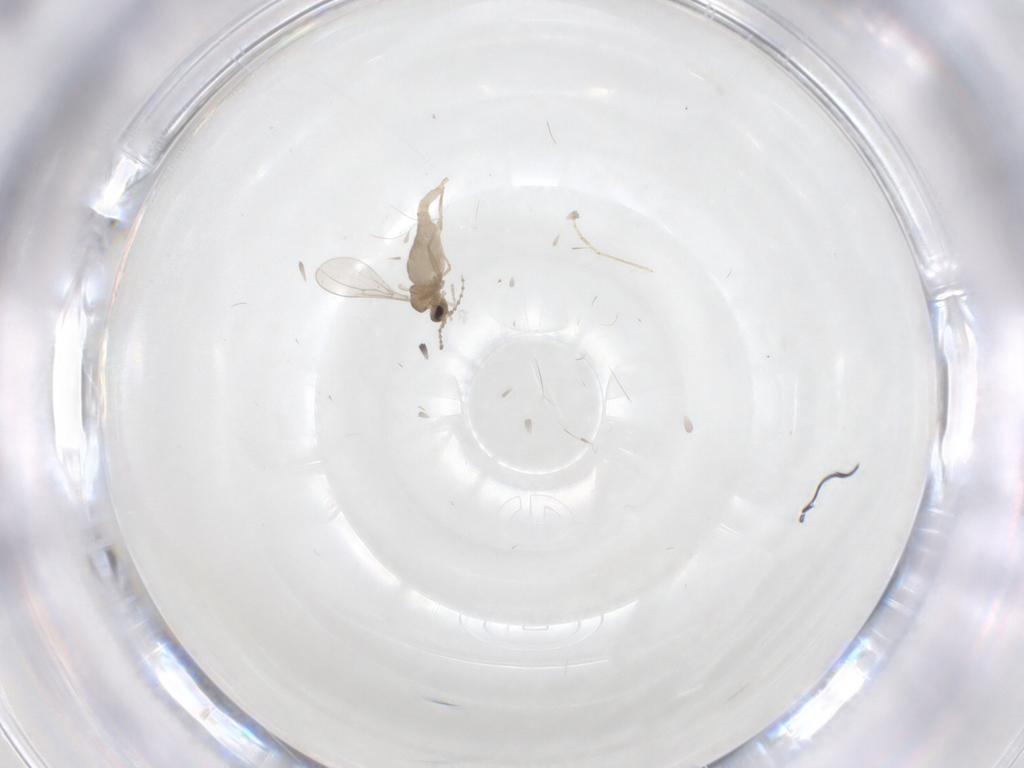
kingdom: Animalia
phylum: Arthropoda
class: Insecta
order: Diptera
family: Cecidomyiidae
